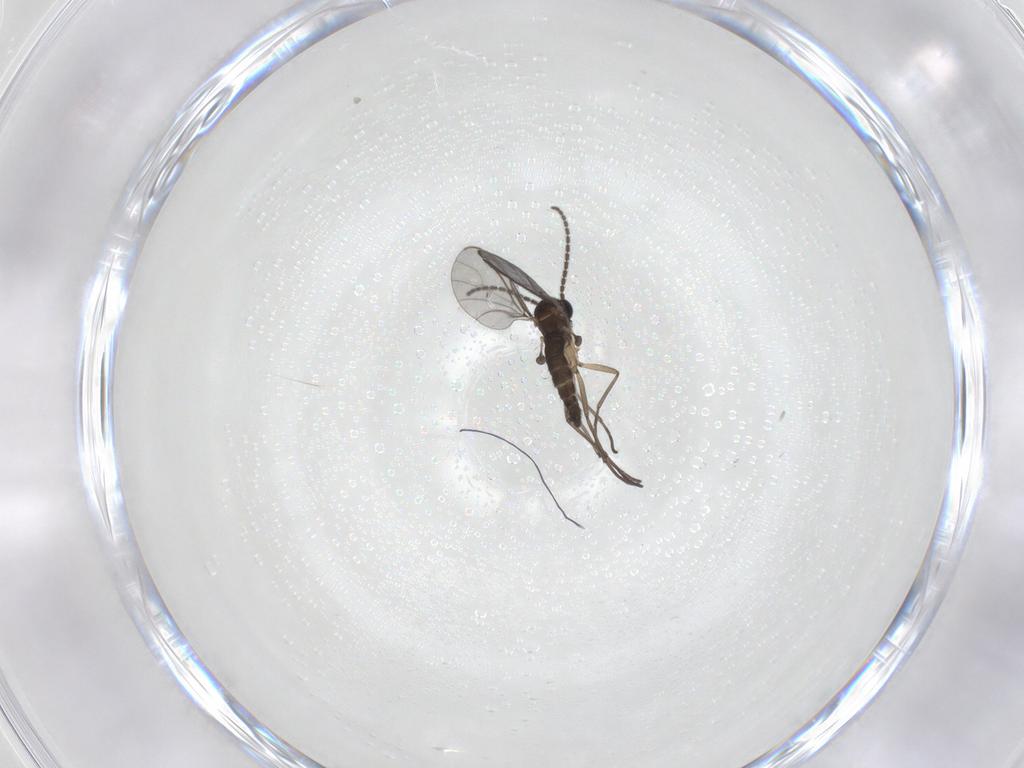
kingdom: Animalia
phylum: Arthropoda
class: Insecta
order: Diptera
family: Sciaridae
